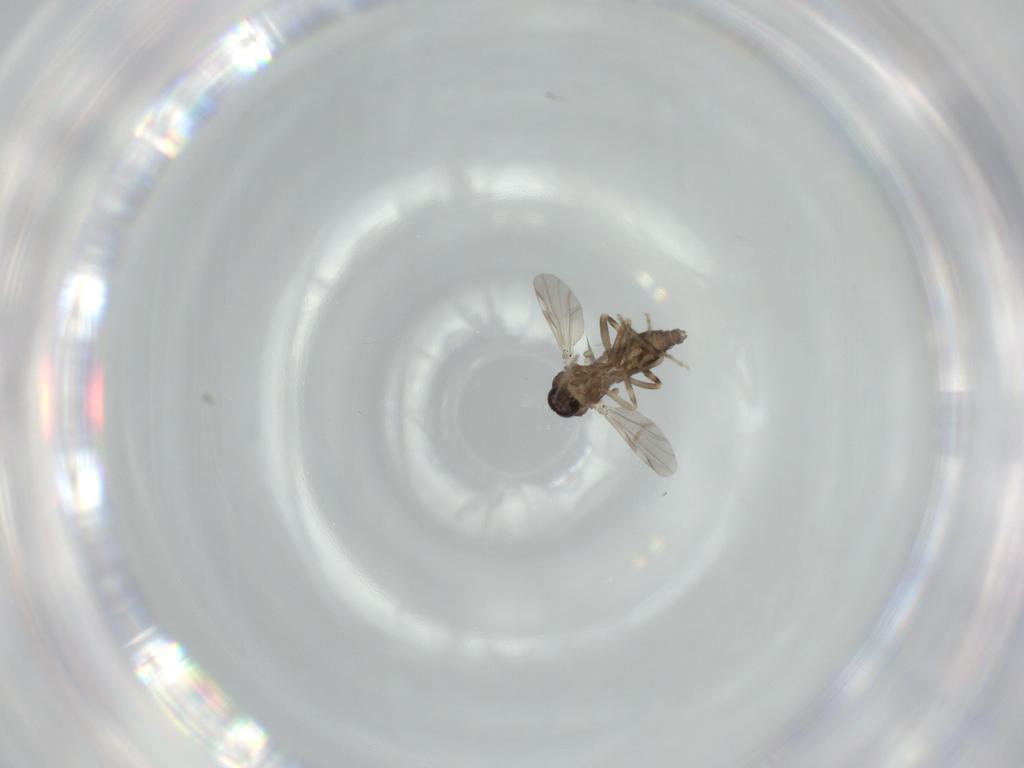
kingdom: Animalia
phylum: Arthropoda
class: Insecta
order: Diptera
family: Ceratopogonidae
